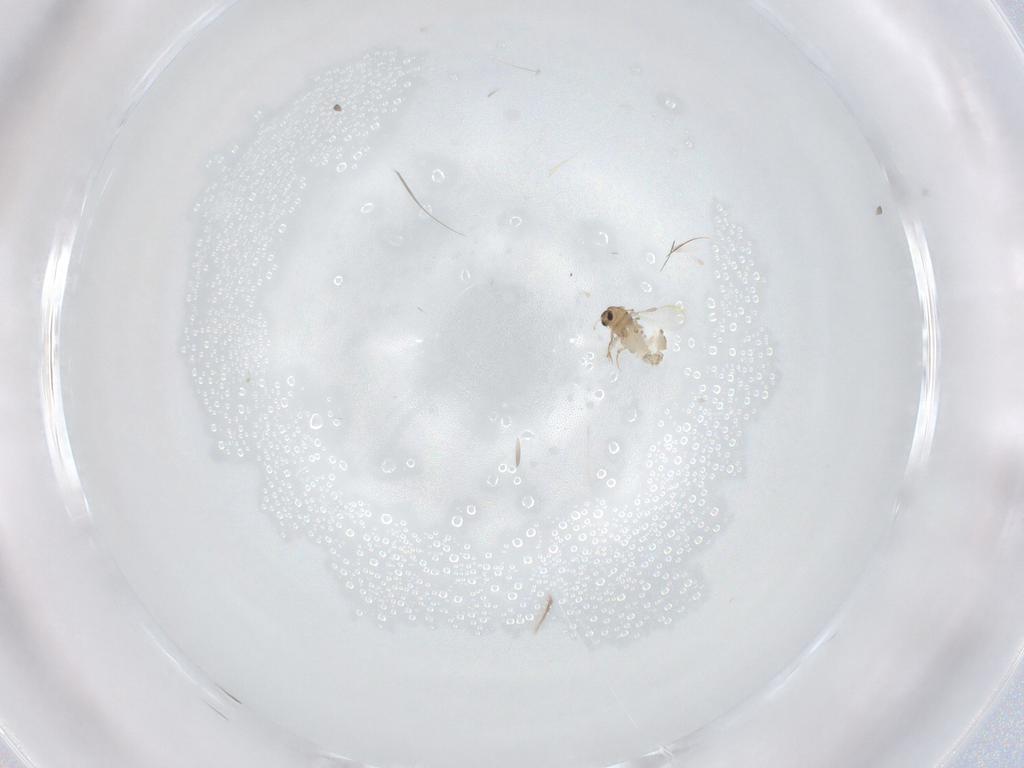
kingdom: Animalia
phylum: Arthropoda
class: Insecta
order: Diptera
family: Chironomidae
